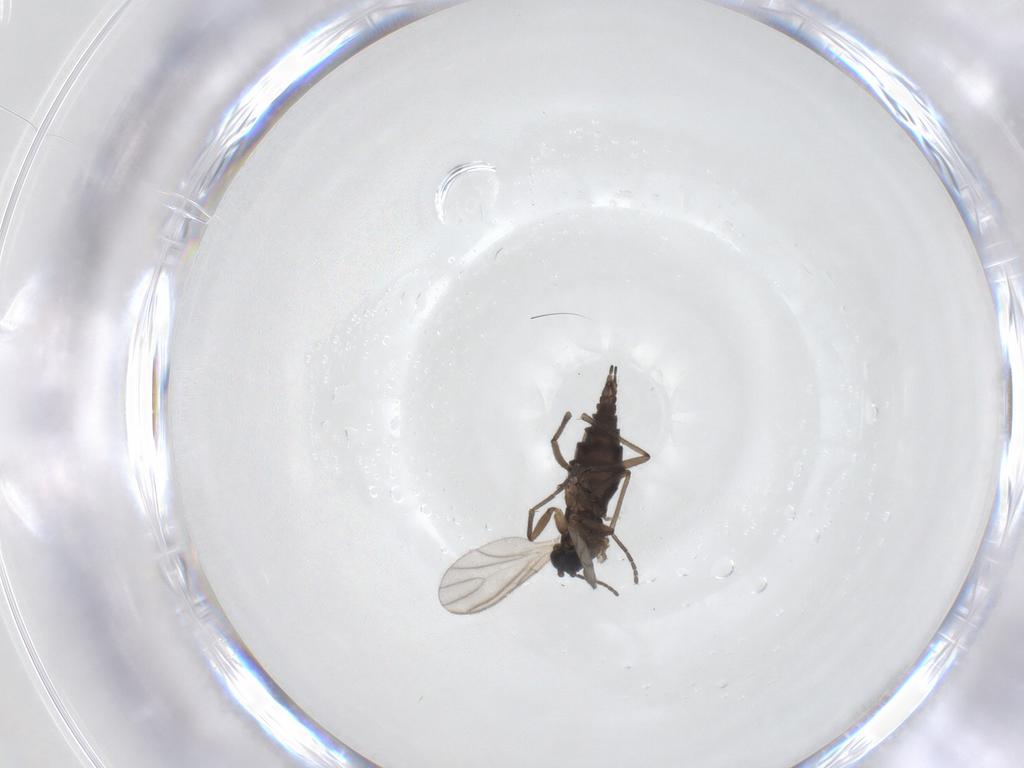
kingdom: Animalia
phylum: Arthropoda
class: Insecta
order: Diptera
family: Sciaridae
